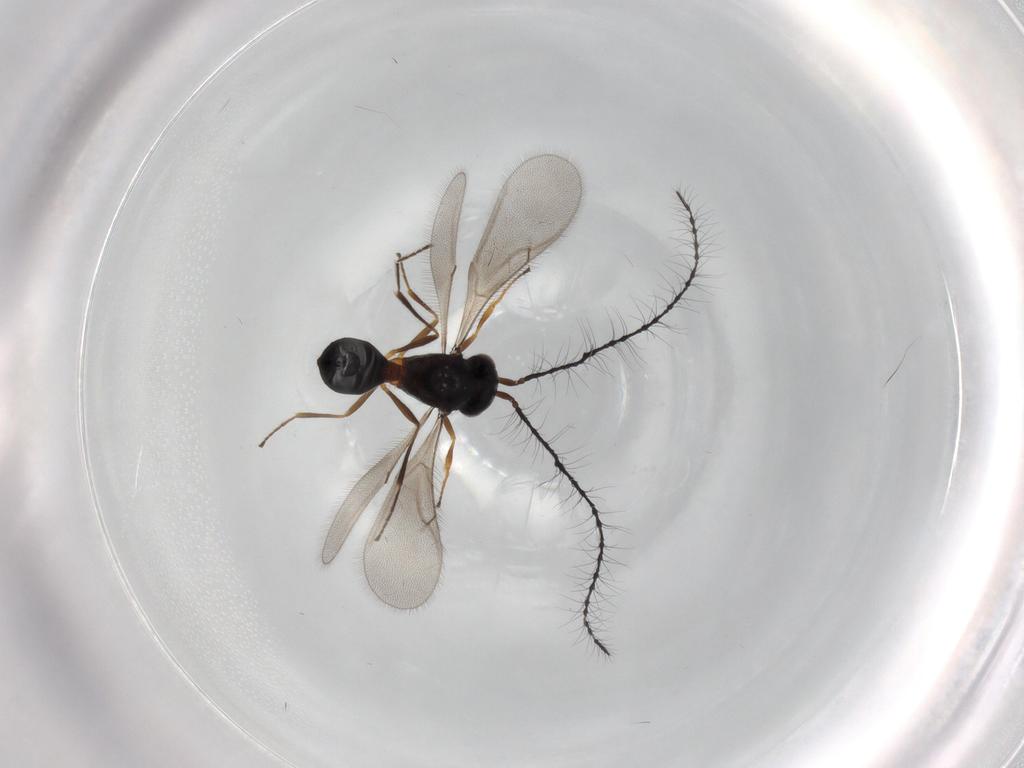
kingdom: Animalia
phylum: Arthropoda
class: Insecta
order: Hymenoptera
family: Scelionidae
